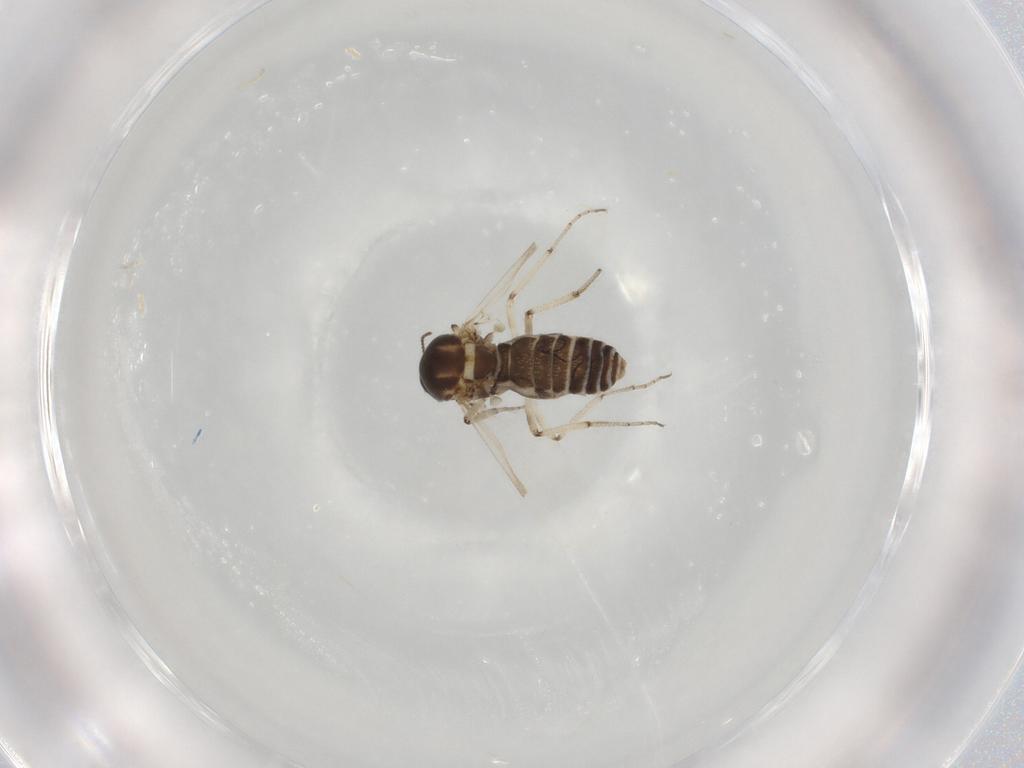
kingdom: Animalia
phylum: Arthropoda
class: Insecta
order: Diptera
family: Ceratopogonidae
